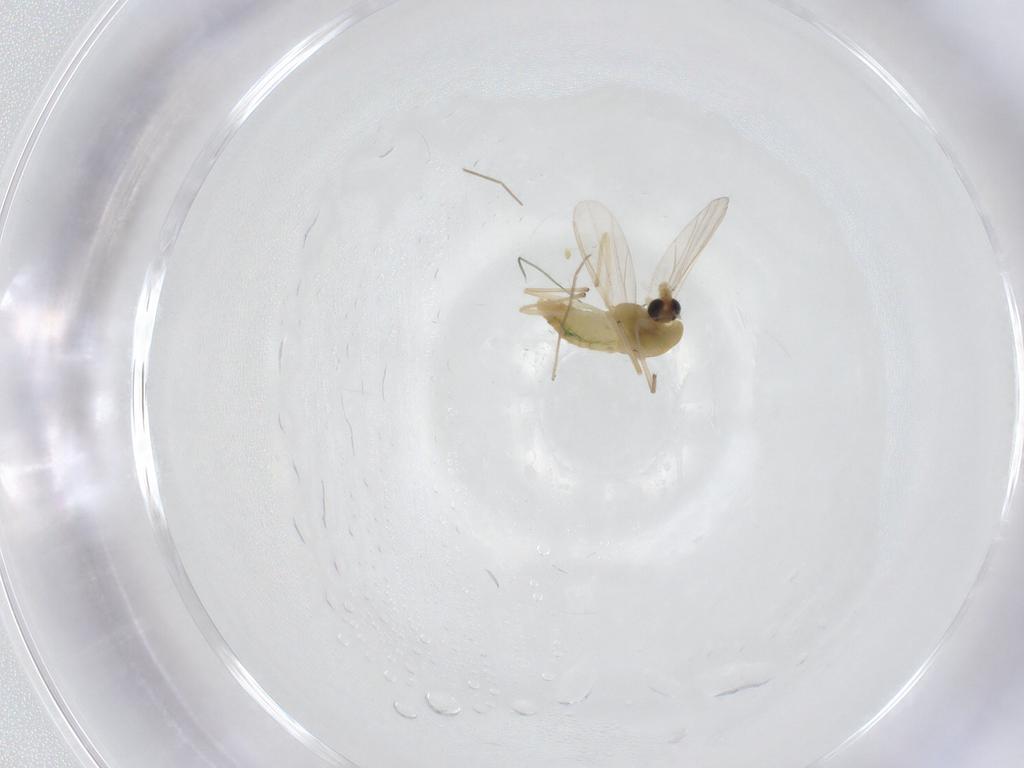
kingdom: Animalia
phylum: Arthropoda
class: Insecta
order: Diptera
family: Chironomidae
